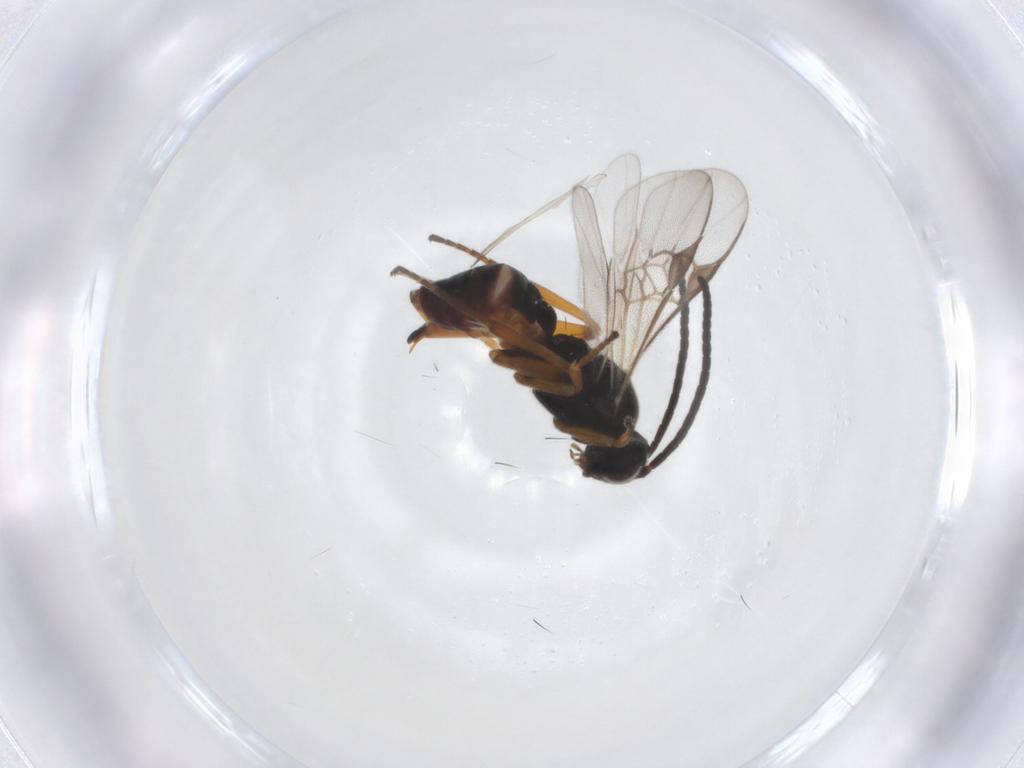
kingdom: Animalia
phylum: Arthropoda
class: Insecta
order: Hymenoptera
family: Braconidae
